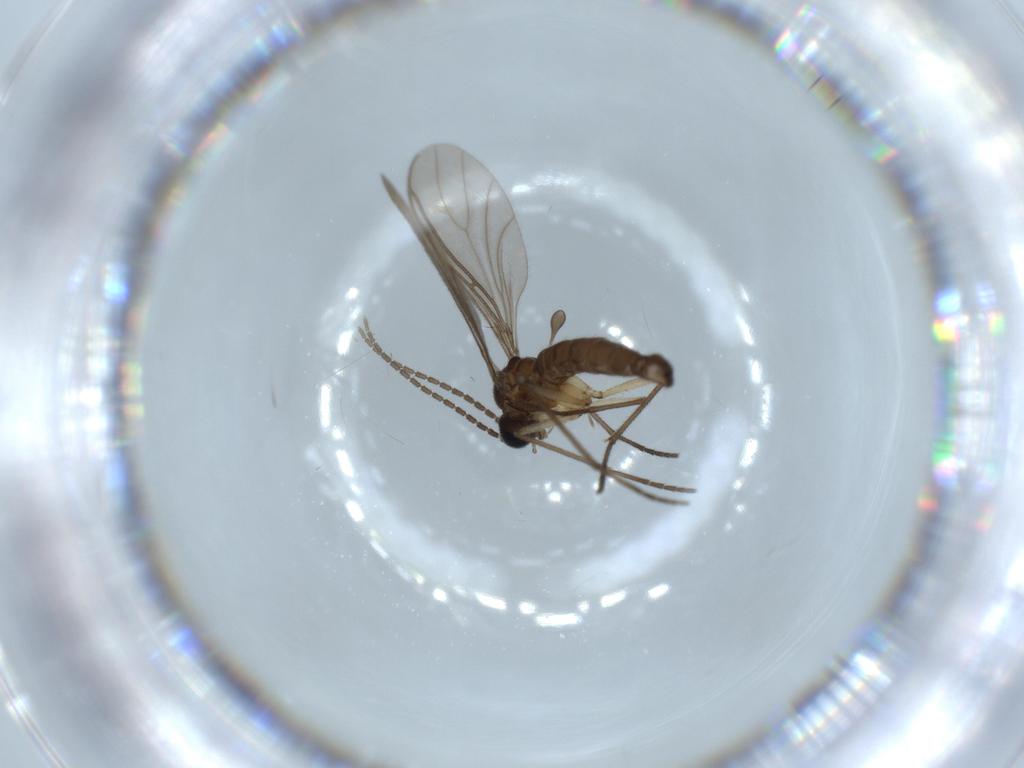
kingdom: Animalia
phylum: Arthropoda
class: Insecta
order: Diptera
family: Sciaridae
